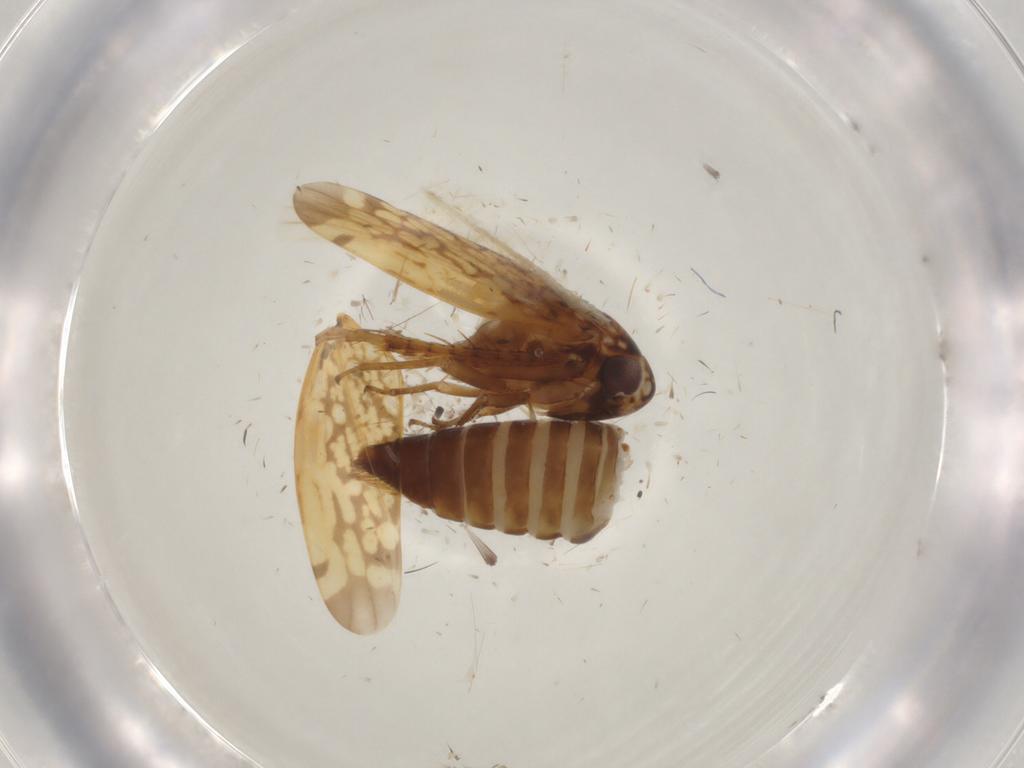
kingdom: Animalia
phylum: Arthropoda
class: Insecta
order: Hemiptera
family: Cicadellidae
